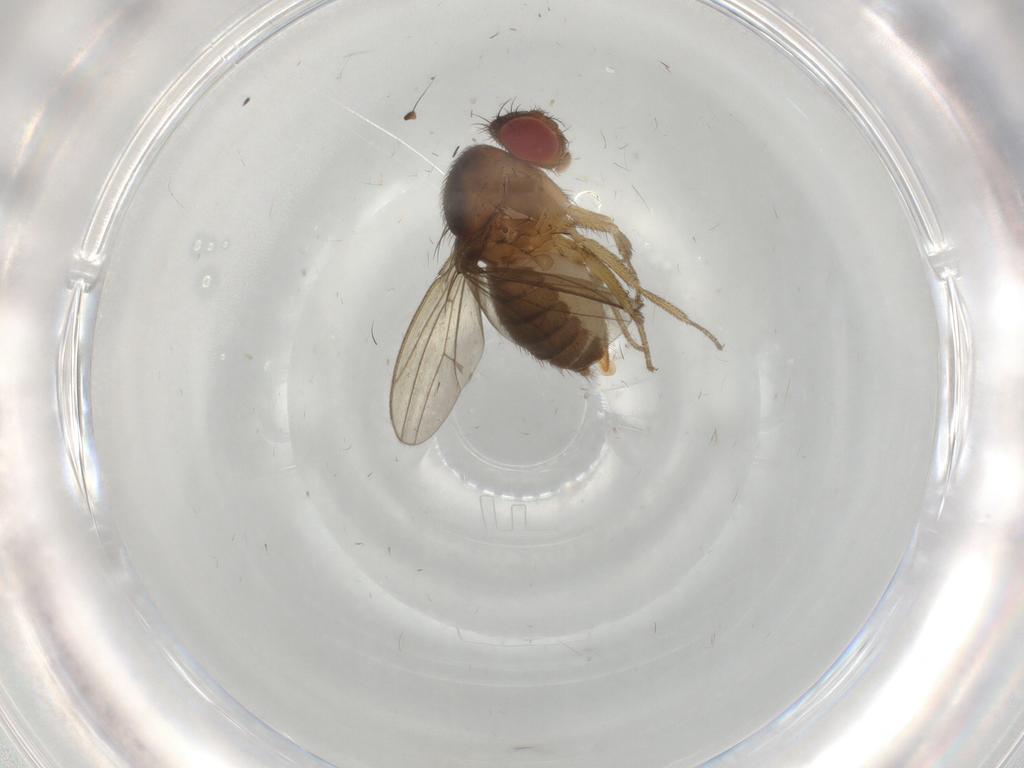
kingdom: Animalia
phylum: Arthropoda
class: Insecta
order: Diptera
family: Drosophilidae
